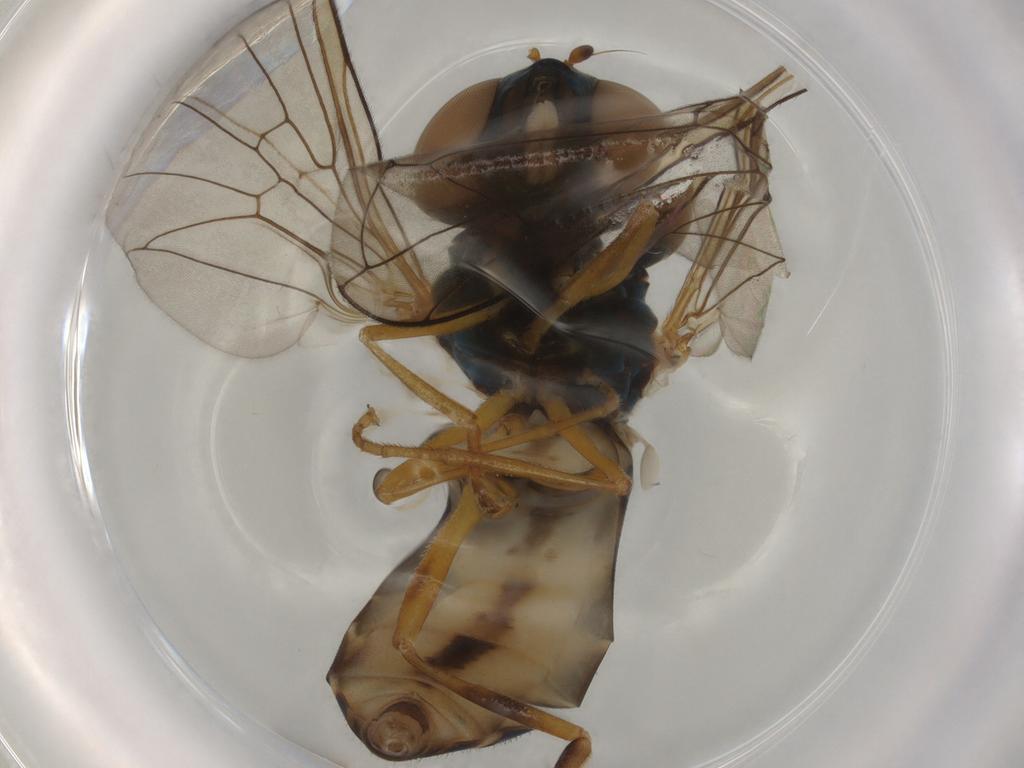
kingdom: Animalia
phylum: Arthropoda
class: Insecta
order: Diptera
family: Syrphidae
